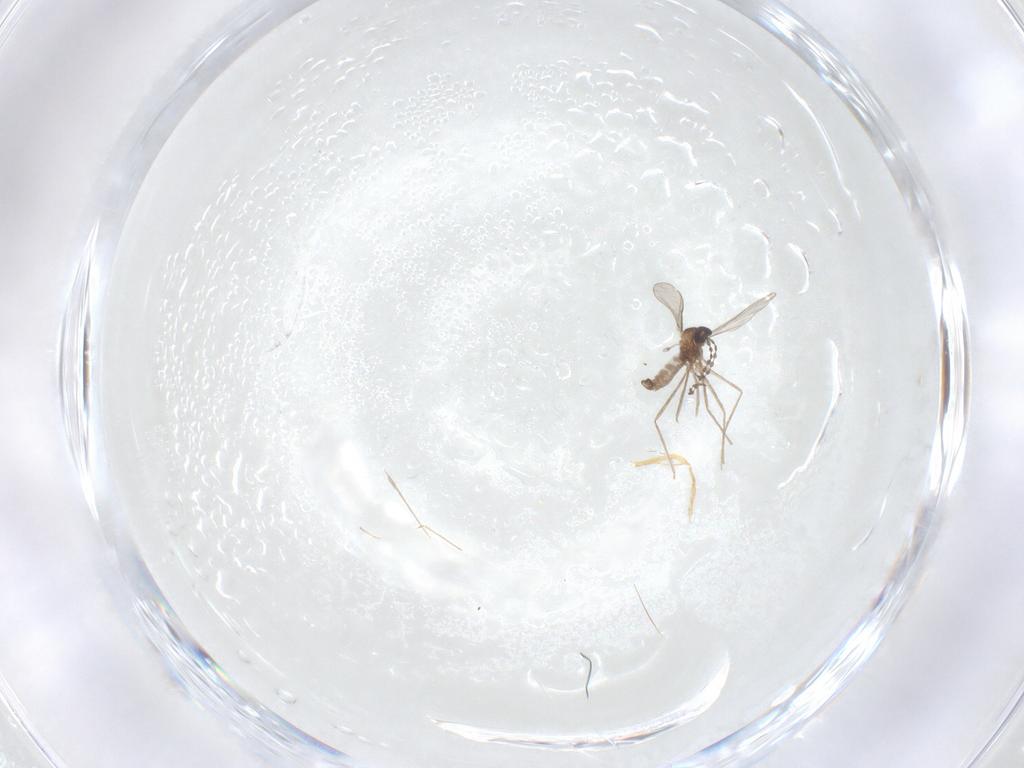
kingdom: Animalia
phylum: Arthropoda
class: Insecta
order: Diptera
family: Cecidomyiidae
